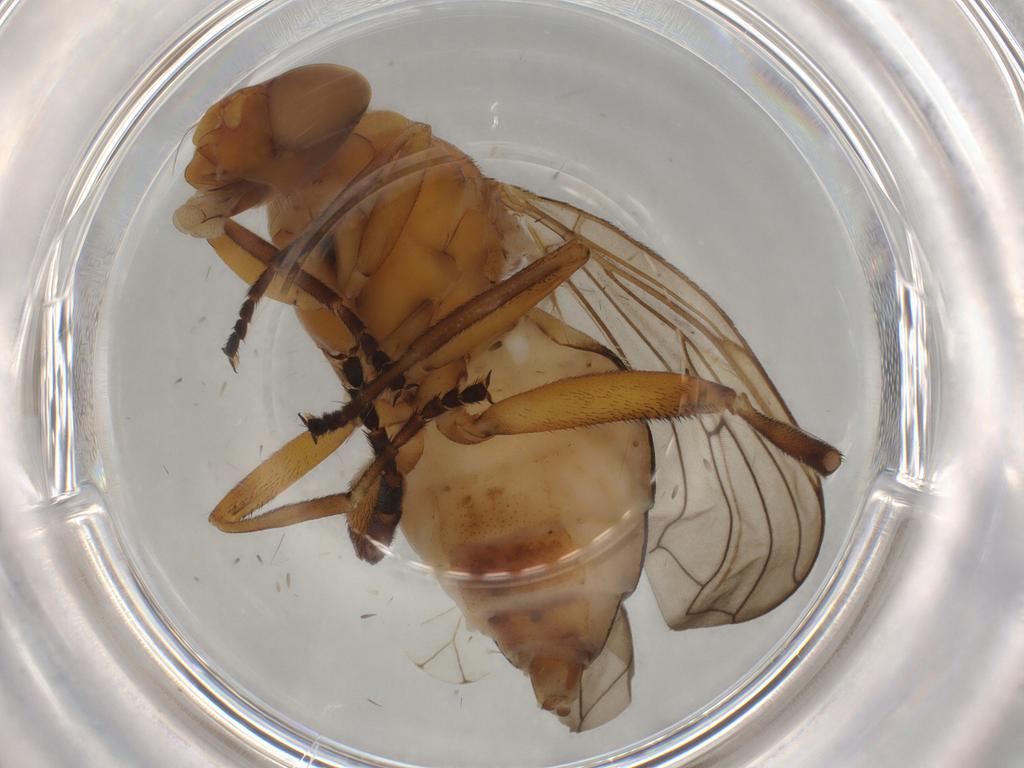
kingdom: Animalia
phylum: Arthropoda
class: Insecta
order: Diptera
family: Syrphidae
